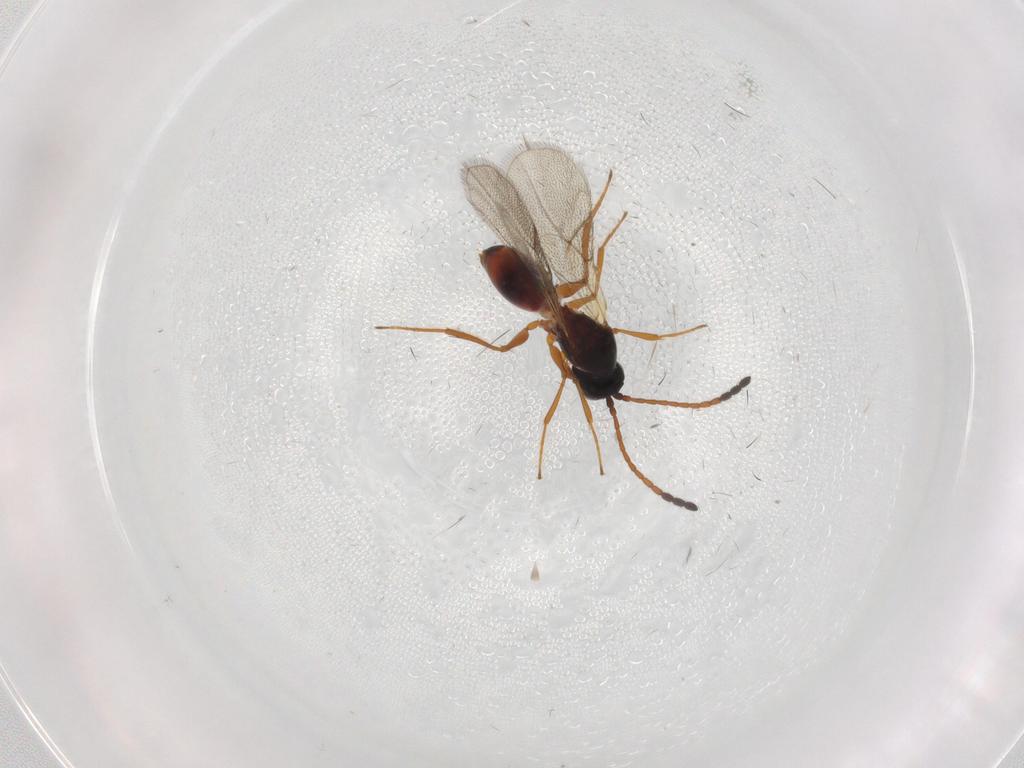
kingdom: Animalia
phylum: Arthropoda
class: Insecta
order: Hymenoptera
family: Figitidae
